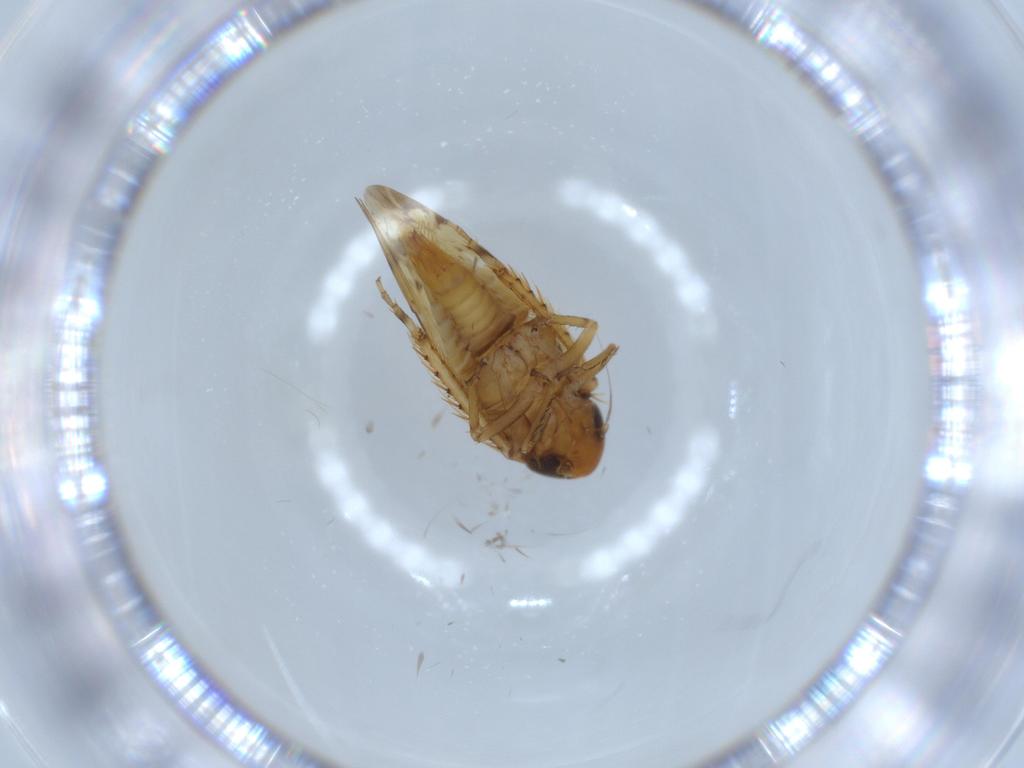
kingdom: Animalia
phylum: Arthropoda
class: Insecta
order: Hemiptera
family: Cicadellidae
